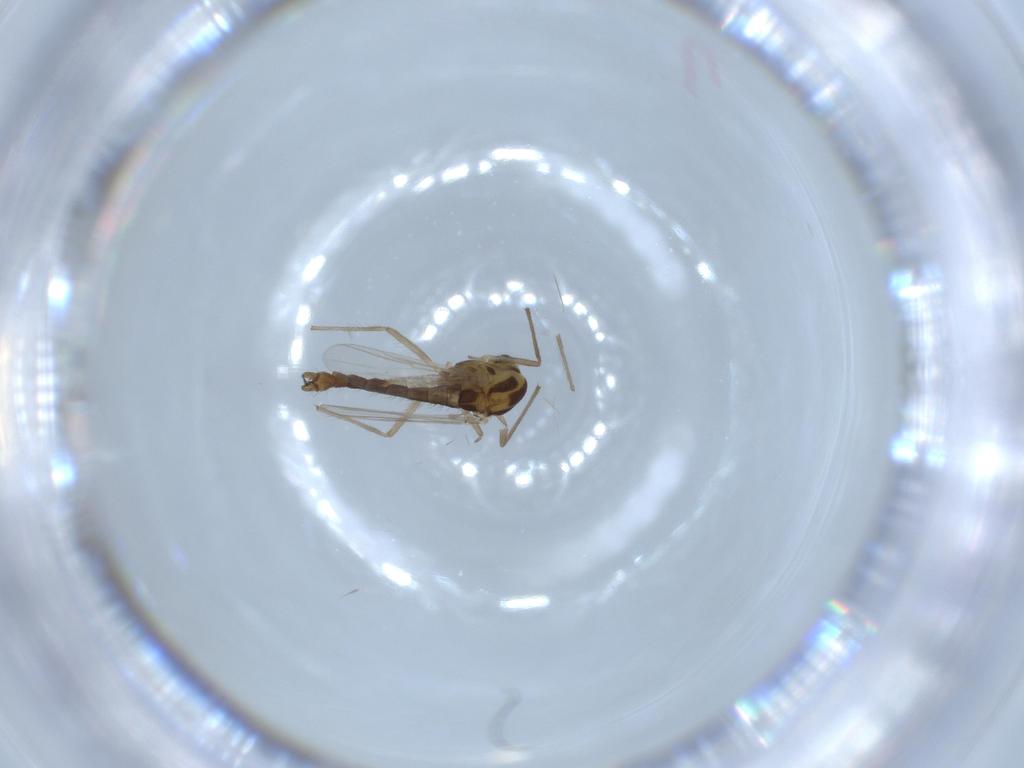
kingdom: Animalia
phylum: Arthropoda
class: Insecta
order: Diptera
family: Chironomidae
